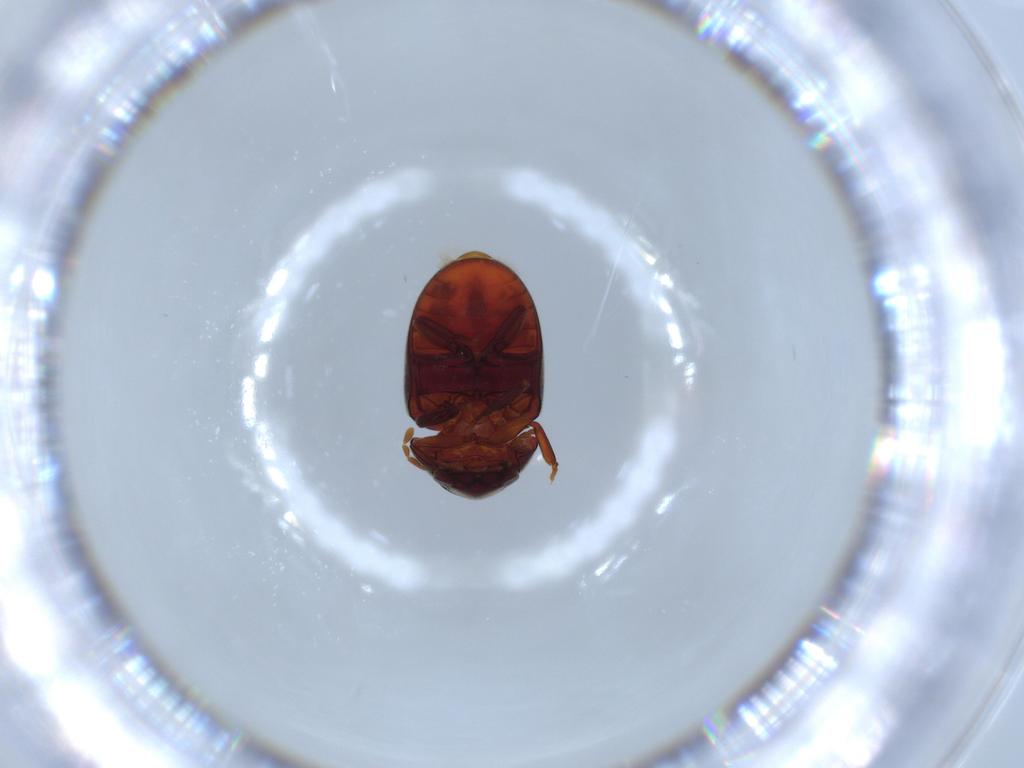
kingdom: Animalia
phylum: Arthropoda
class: Insecta
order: Coleoptera
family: Ptinidae
